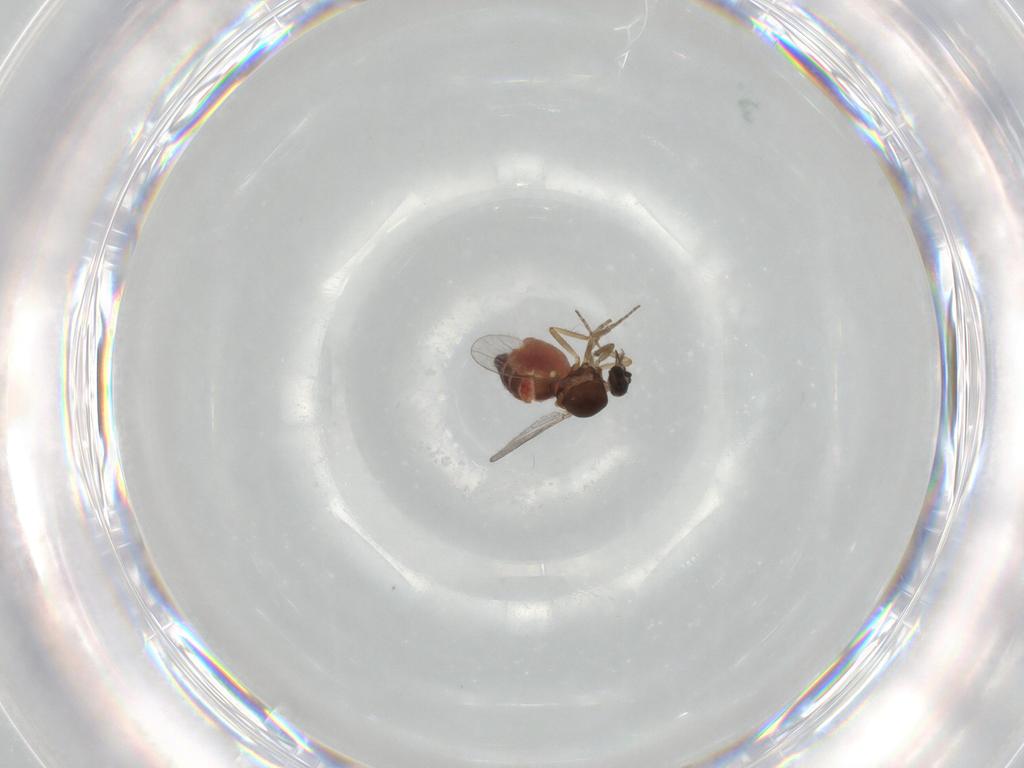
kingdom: Animalia
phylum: Arthropoda
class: Insecta
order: Diptera
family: Ceratopogonidae
